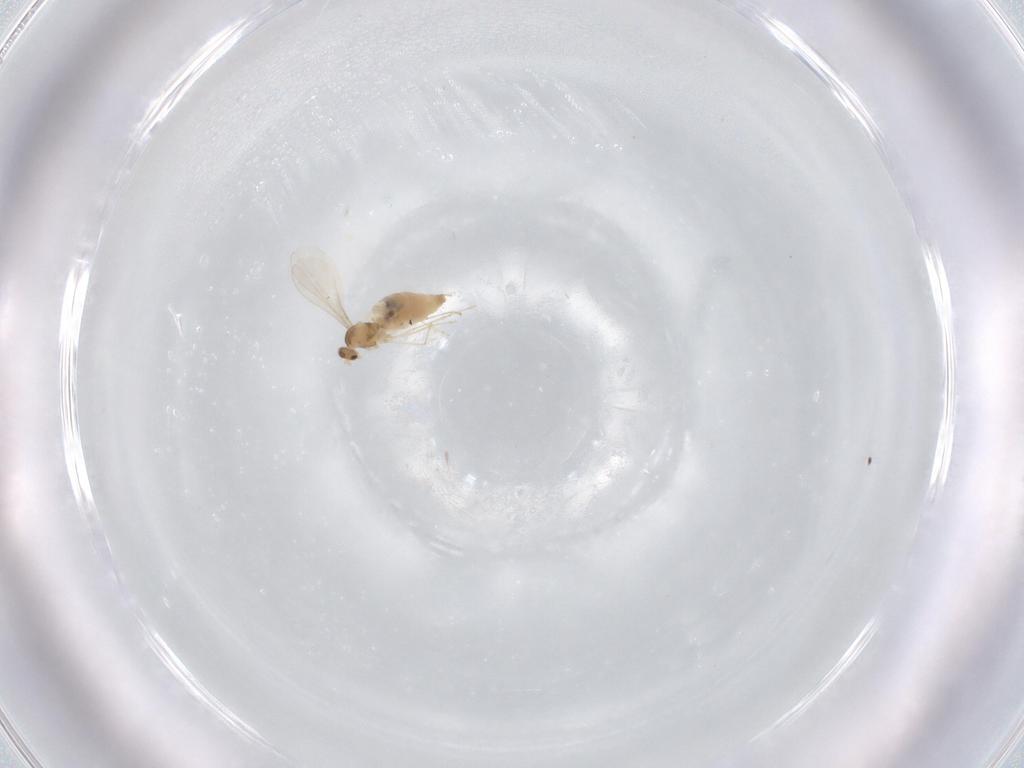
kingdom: Animalia
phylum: Arthropoda
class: Insecta
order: Diptera
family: Cecidomyiidae
